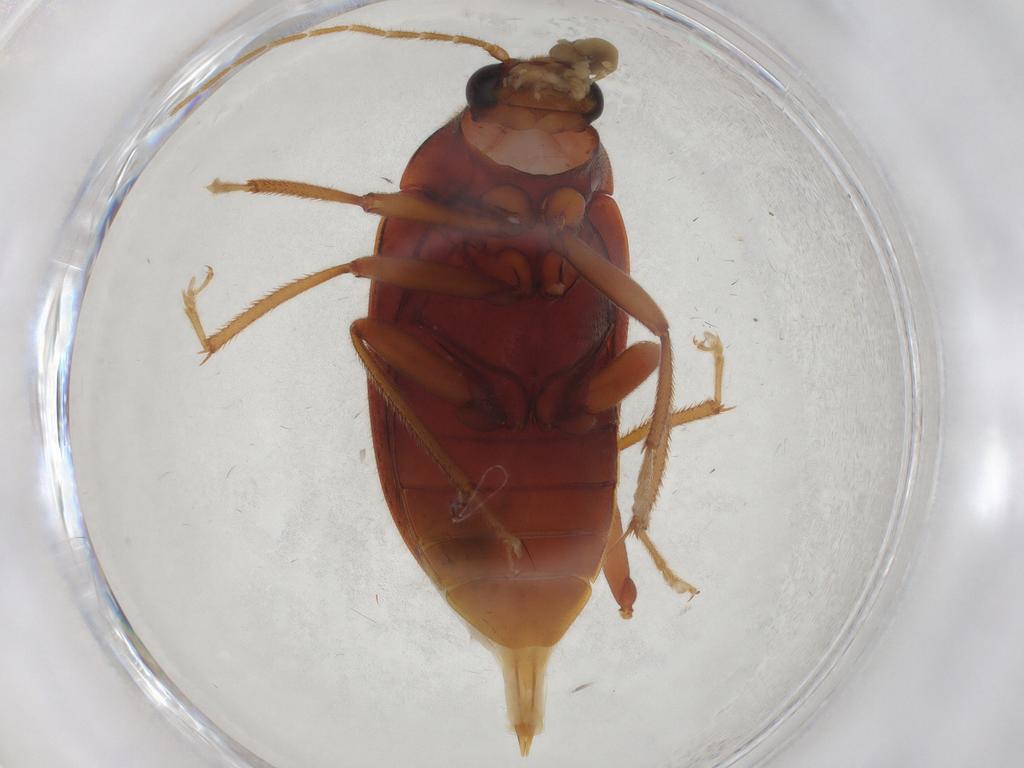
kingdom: Animalia
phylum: Arthropoda
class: Insecta
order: Coleoptera
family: Ptilodactylidae
